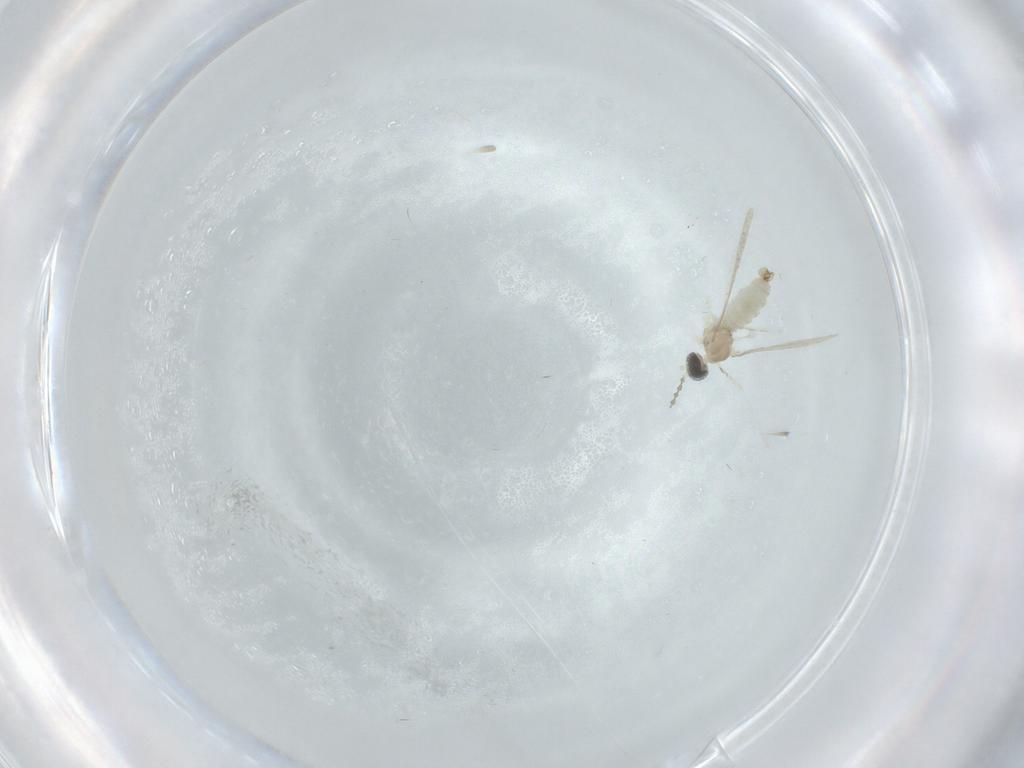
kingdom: Animalia
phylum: Arthropoda
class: Insecta
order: Diptera
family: Cecidomyiidae
